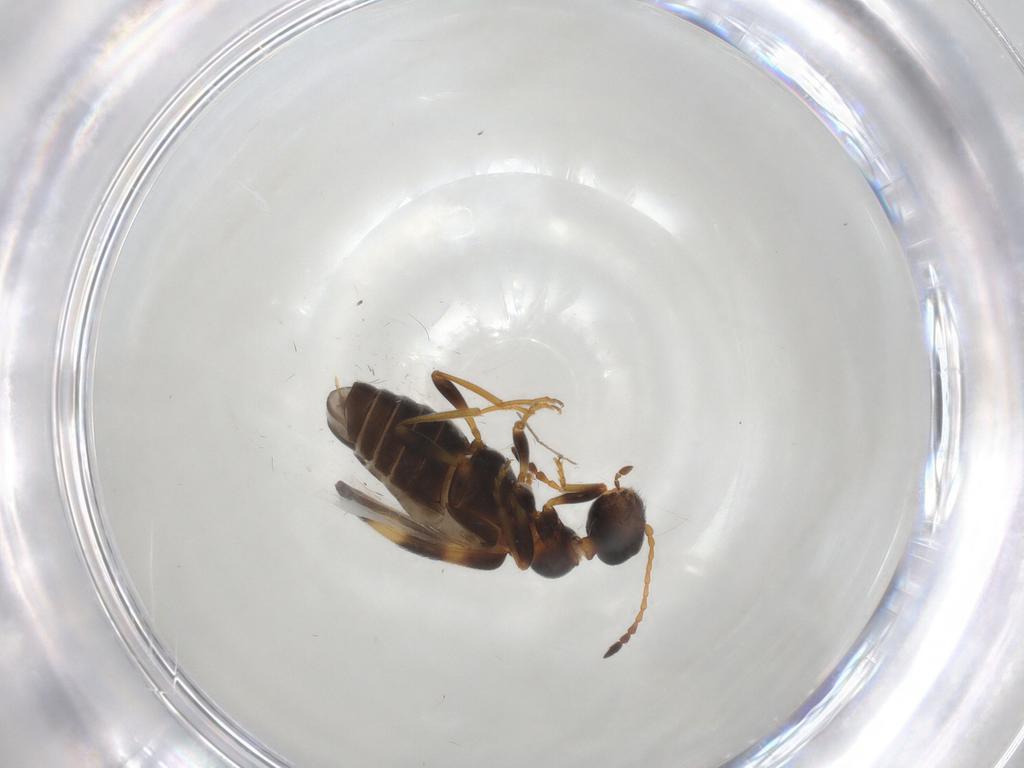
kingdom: Animalia
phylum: Arthropoda
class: Insecta
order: Coleoptera
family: Anthicidae
